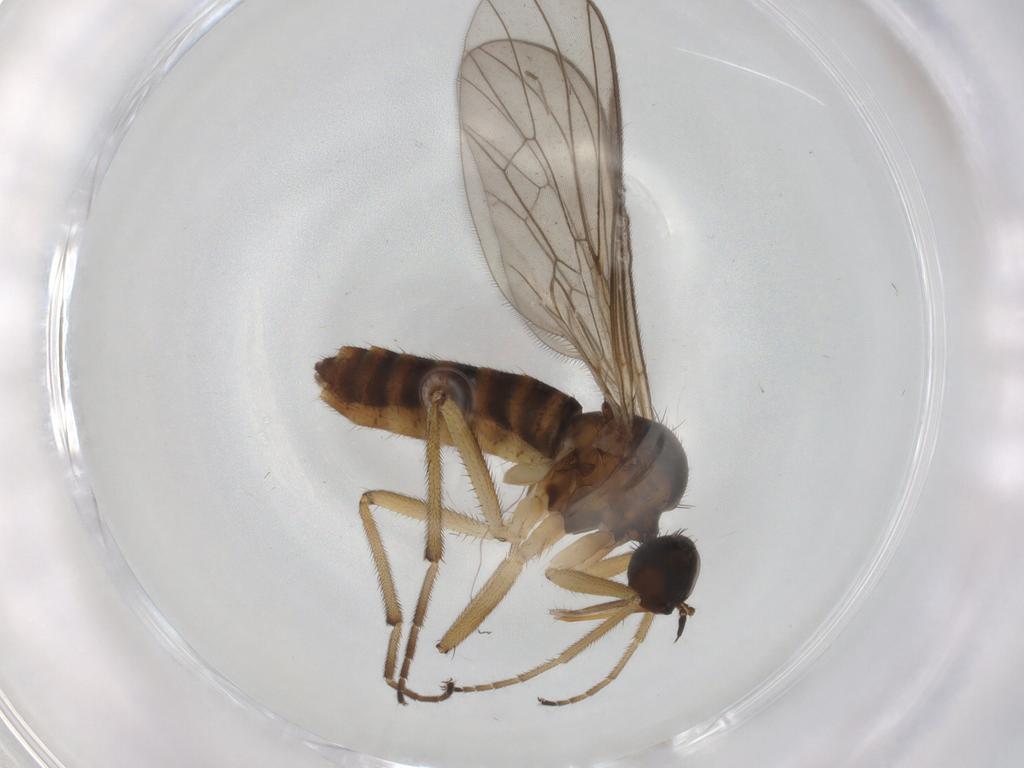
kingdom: Animalia
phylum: Arthropoda
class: Insecta
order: Diptera
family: Empididae
